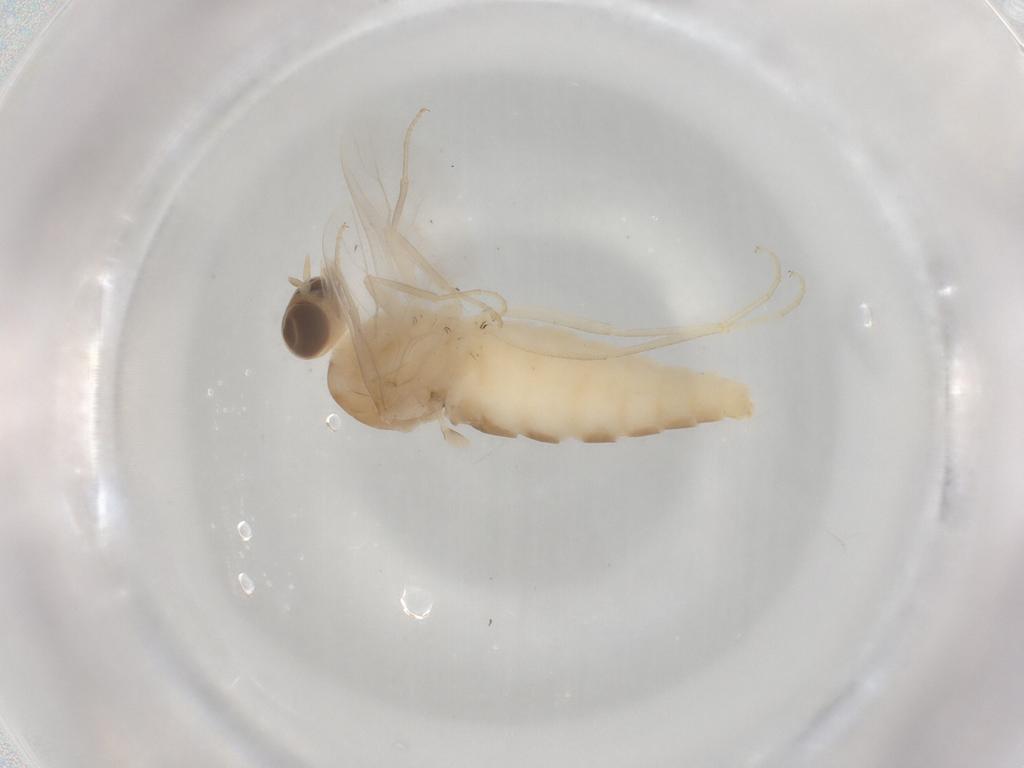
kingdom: Animalia
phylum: Arthropoda
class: Insecta
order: Diptera
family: Scenopinidae
